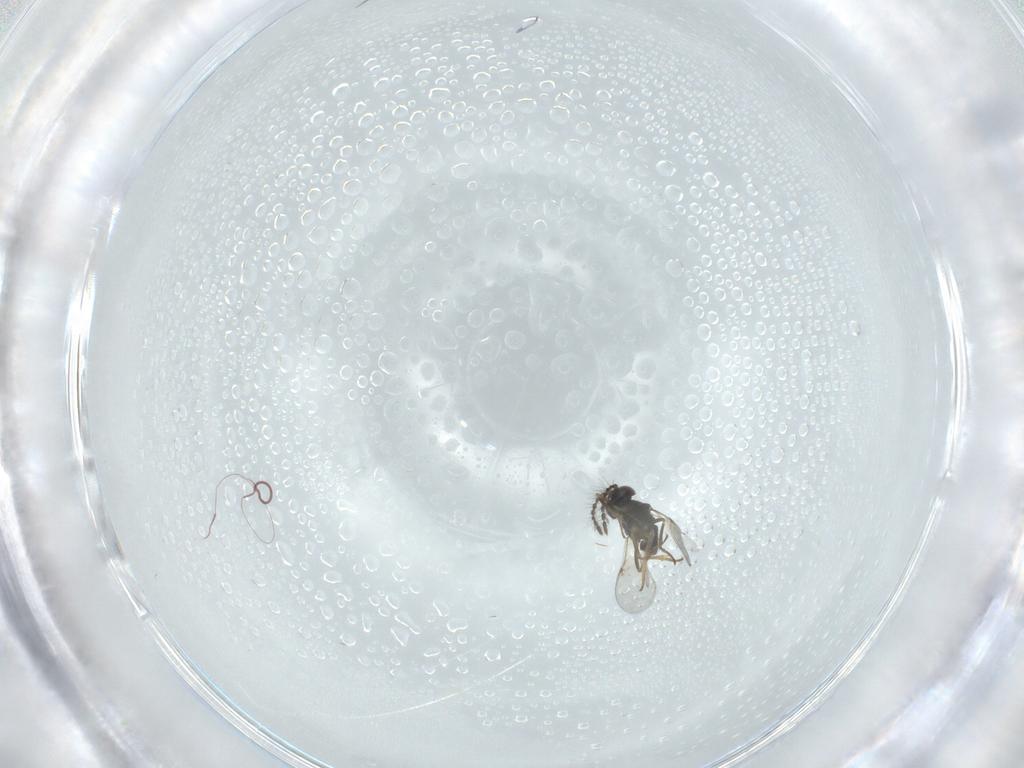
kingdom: Animalia
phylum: Arthropoda
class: Insecta
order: Hymenoptera
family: Encyrtidae
